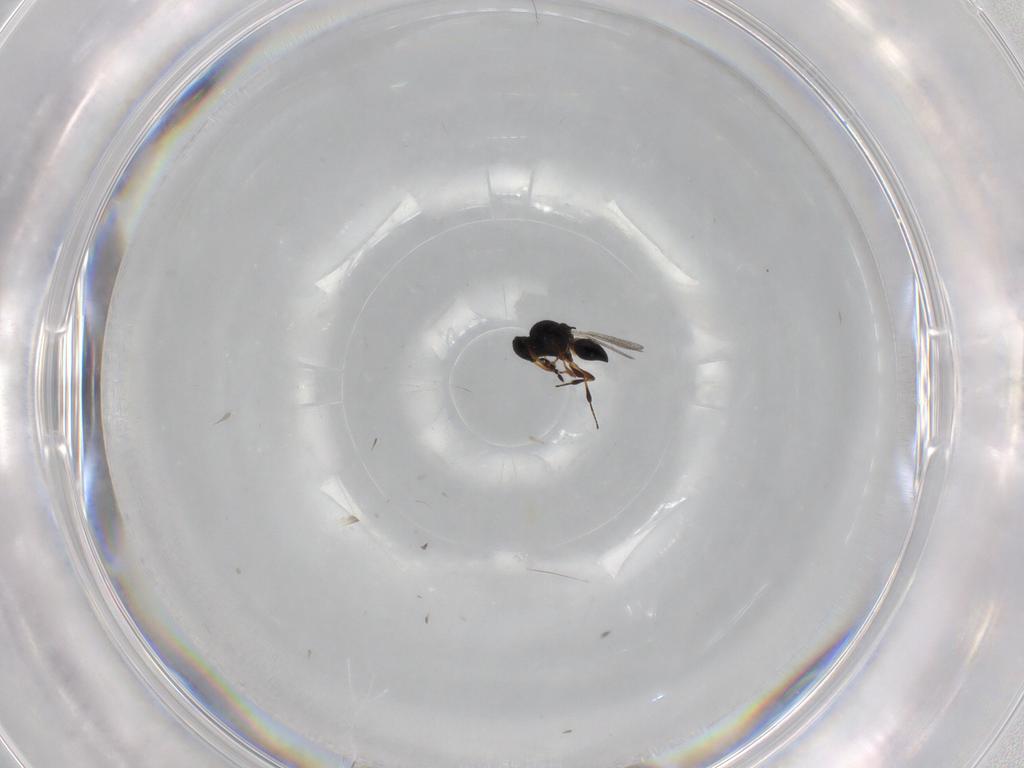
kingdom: Animalia
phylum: Arthropoda
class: Insecta
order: Hymenoptera
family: Platygastridae
